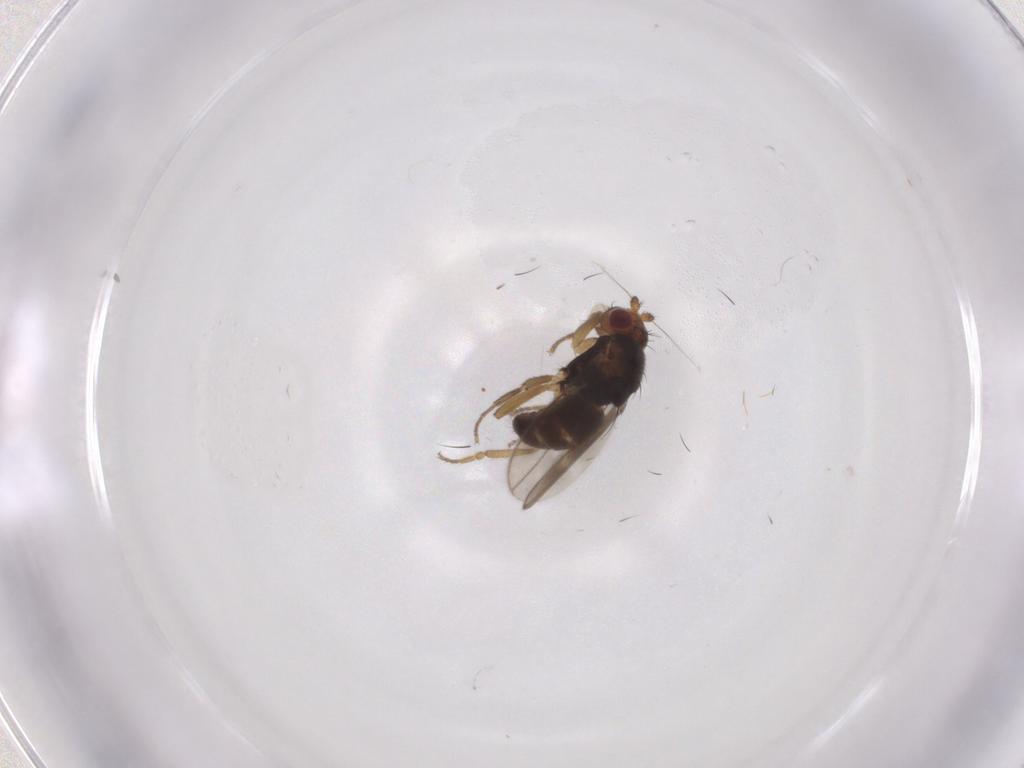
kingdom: Animalia
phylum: Arthropoda
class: Insecta
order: Diptera
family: Sphaeroceridae
